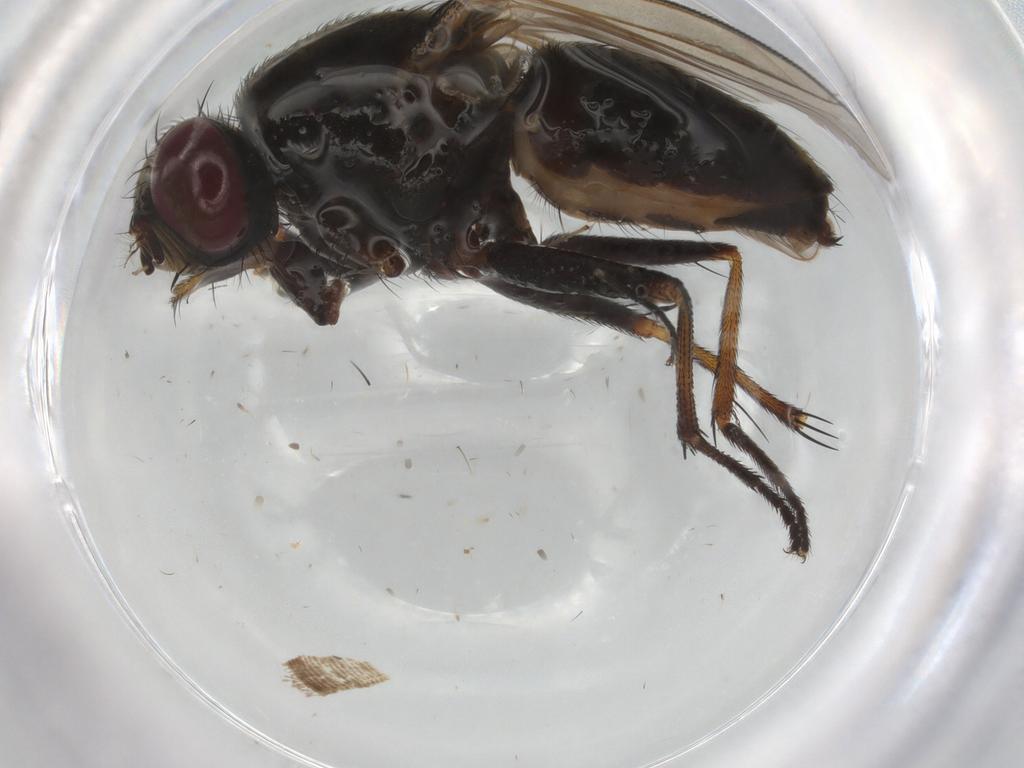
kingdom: Animalia
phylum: Arthropoda
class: Insecta
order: Diptera
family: Muscidae
